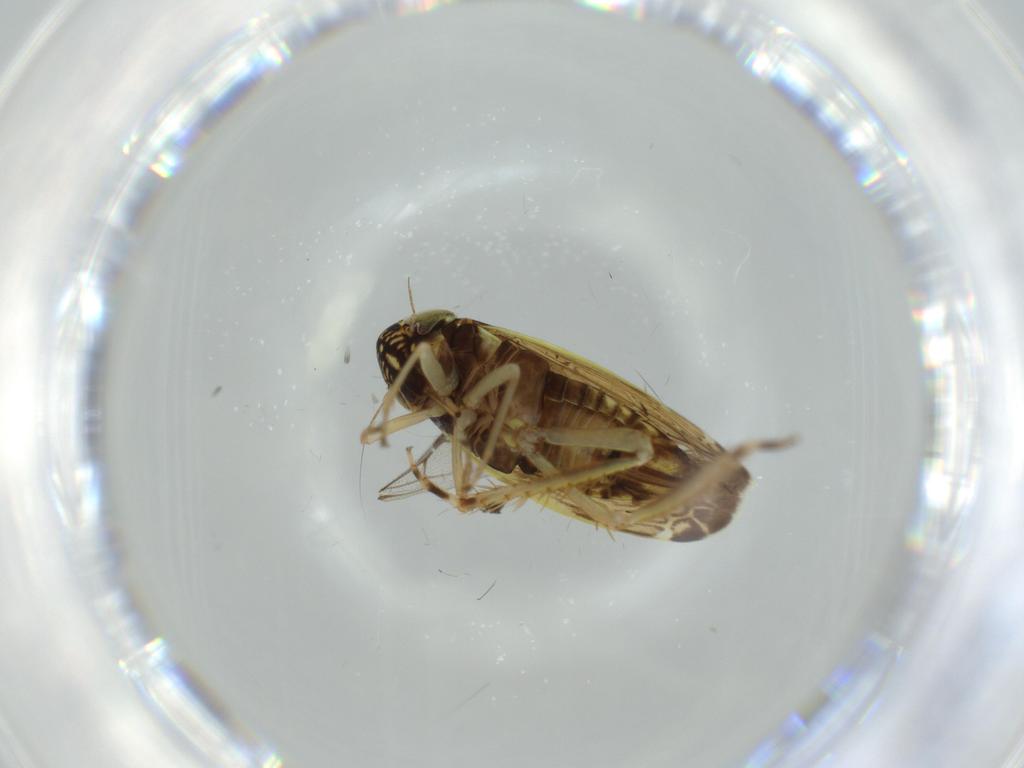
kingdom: Animalia
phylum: Arthropoda
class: Insecta
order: Hemiptera
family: Cicadellidae
